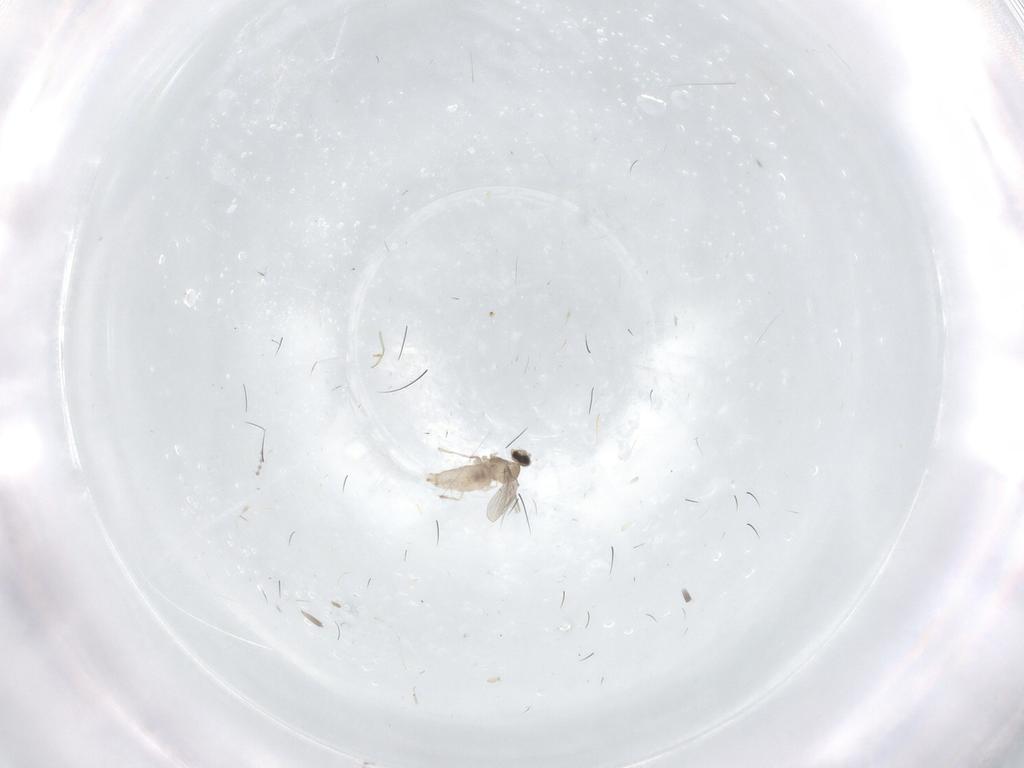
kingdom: Animalia
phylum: Arthropoda
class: Insecta
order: Diptera
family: Cecidomyiidae
